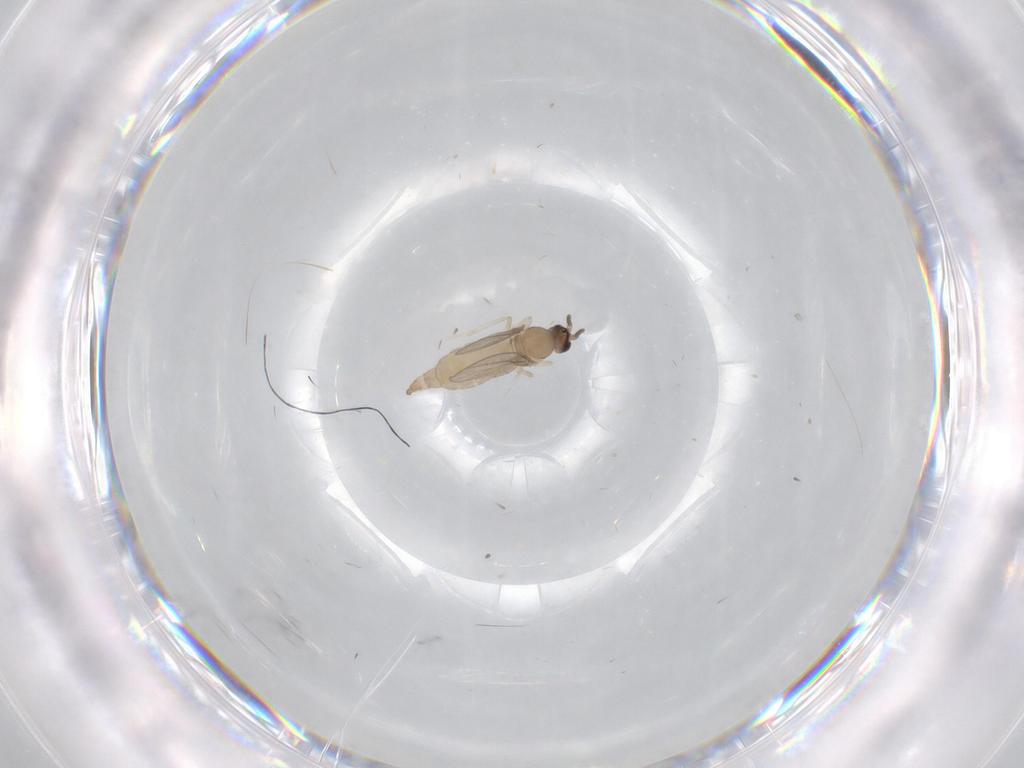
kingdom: Animalia
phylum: Arthropoda
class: Insecta
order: Diptera
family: Cecidomyiidae
